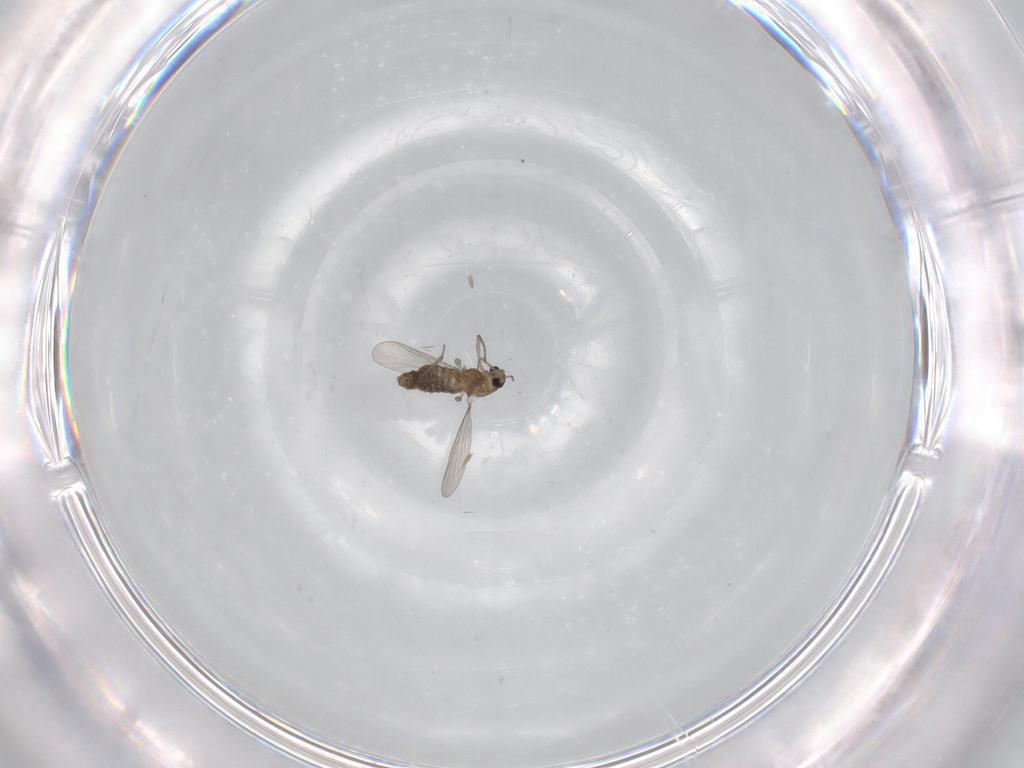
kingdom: Animalia
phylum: Arthropoda
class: Insecta
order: Diptera
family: Chironomidae
